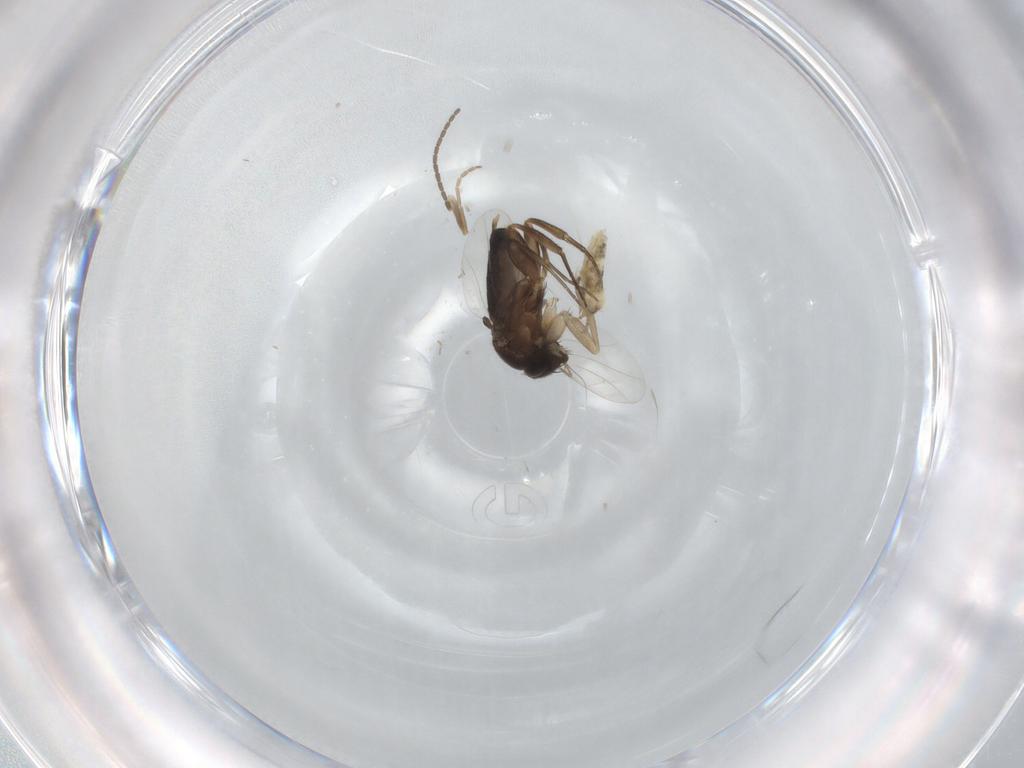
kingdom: Animalia
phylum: Arthropoda
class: Insecta
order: Diptera
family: Phoridae
